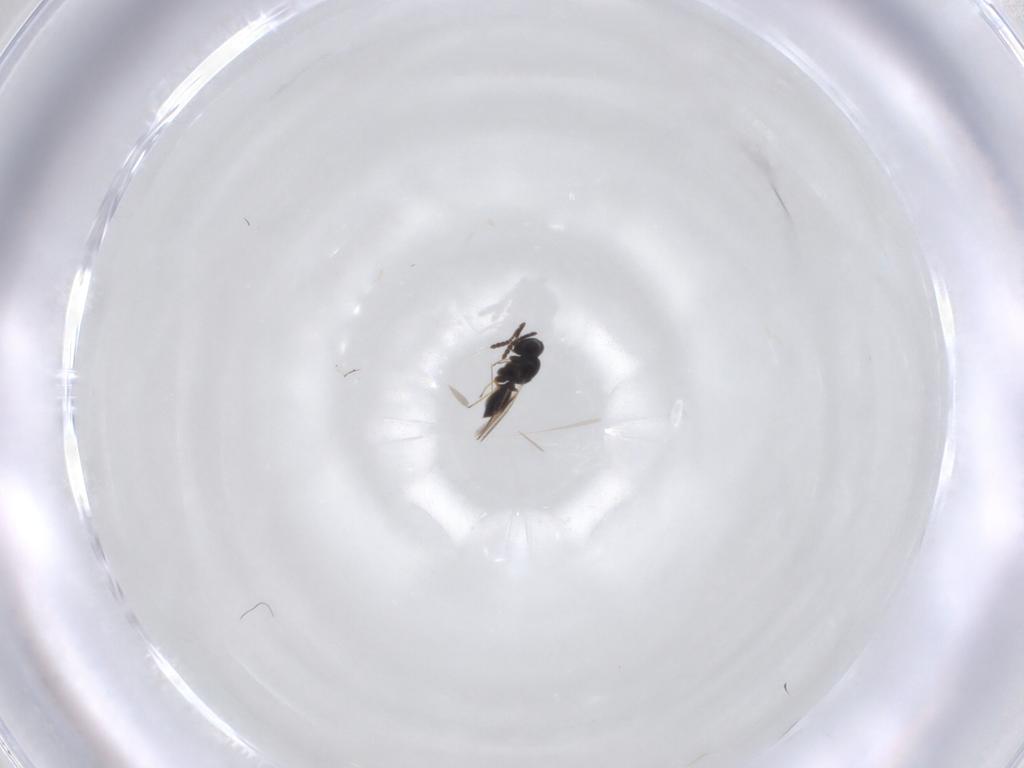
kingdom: Animalia
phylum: Arthropoda
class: Insecta
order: Hymenoptera
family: Scelionidae
